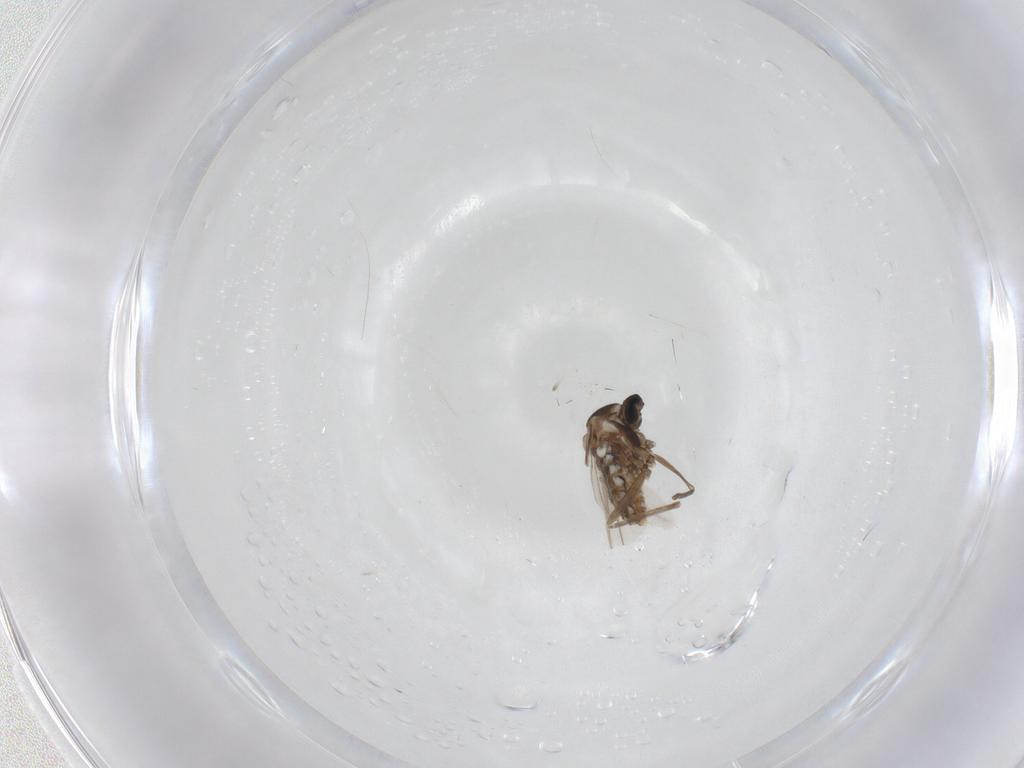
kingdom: Animalia
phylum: Arthropoda
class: Insecta
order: Diptera
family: Cecidomyiidae
